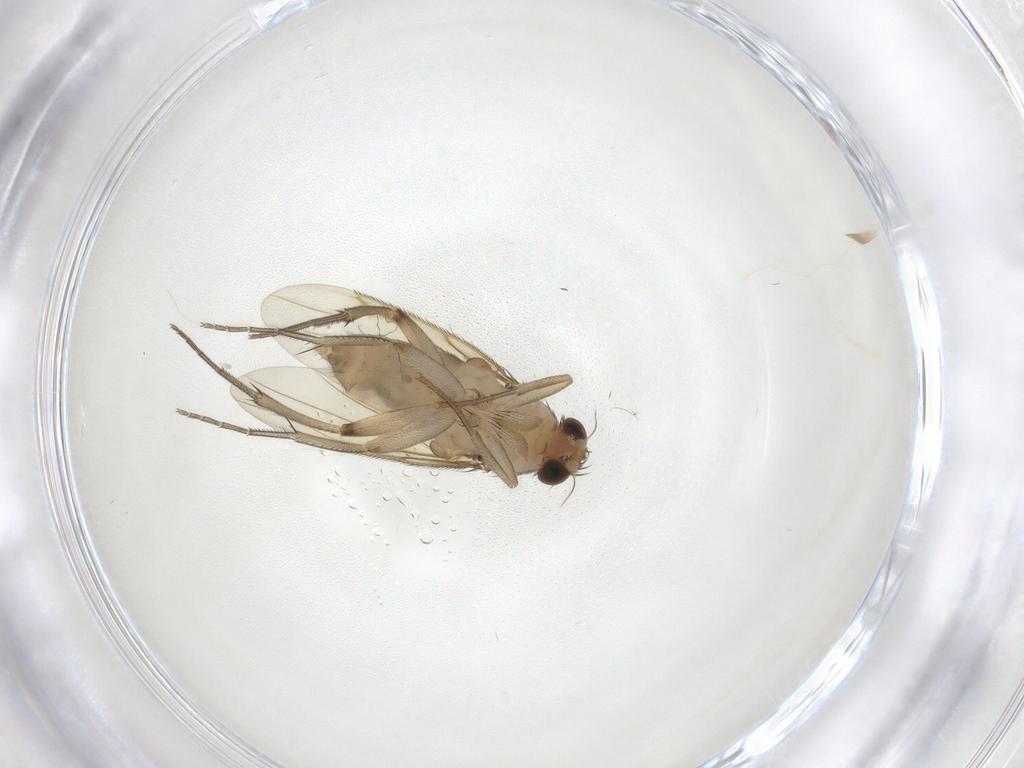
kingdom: Animalia
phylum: Arthropoda
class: Insecta
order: Diptera
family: Phoridae
